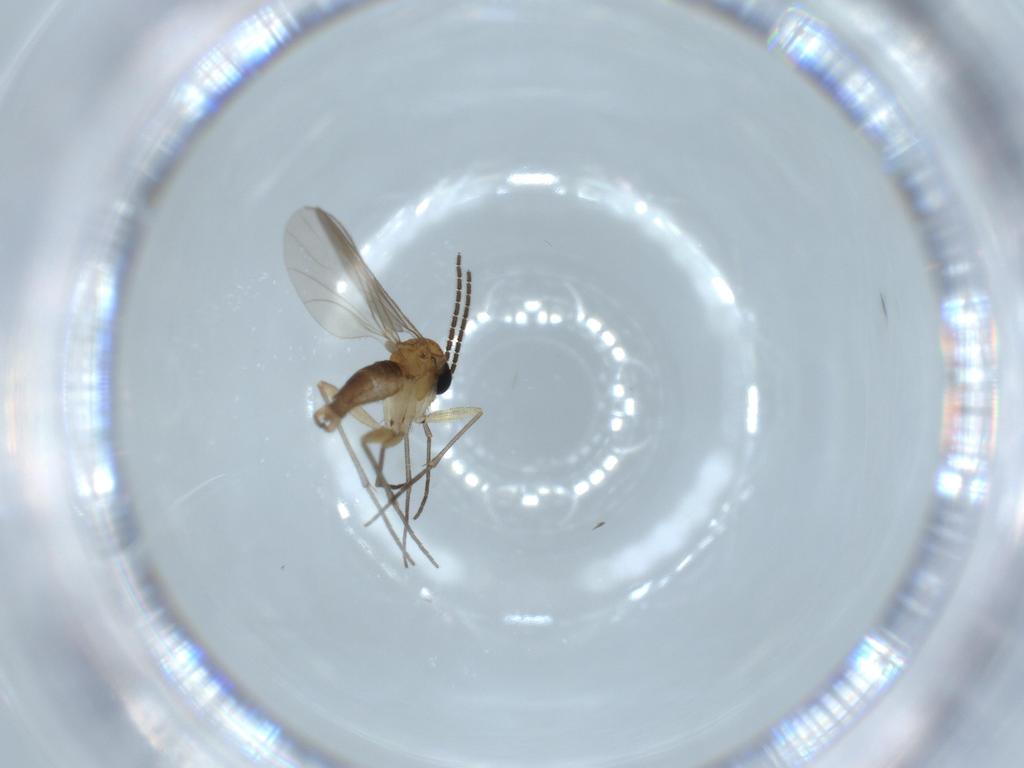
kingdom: Animalia
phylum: Arthropoda
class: Insecta
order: Diptera
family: Sciaridae
